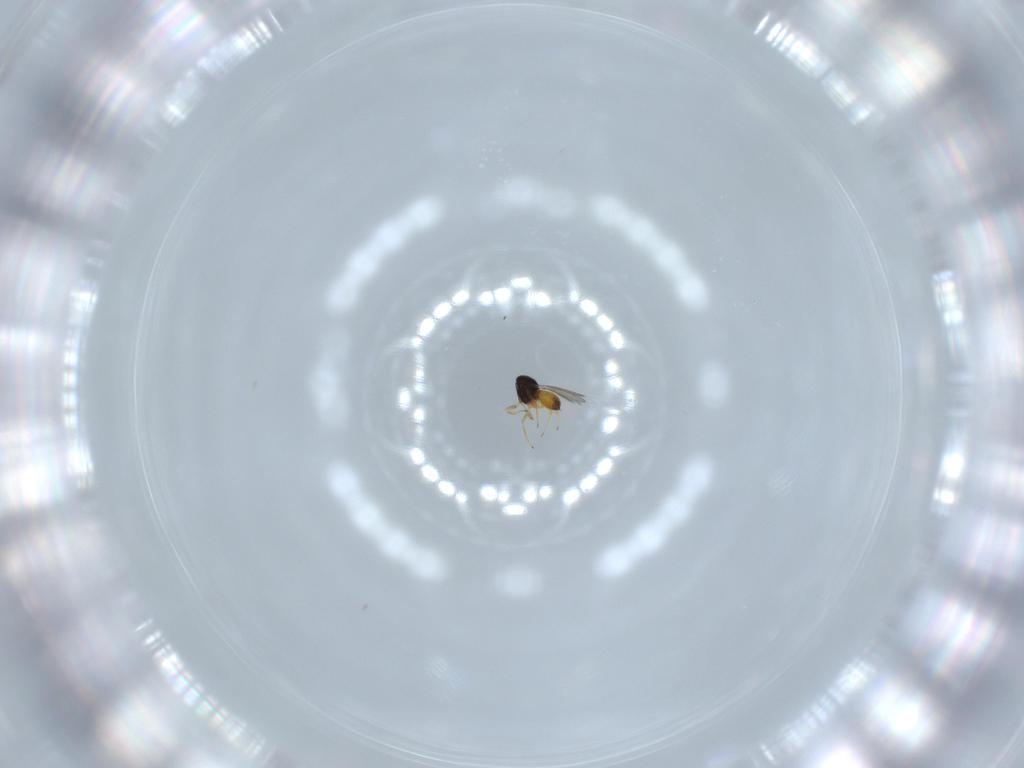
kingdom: Animalia
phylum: Arthropoda
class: Insecta
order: Hymenoptera
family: Scelionidae
